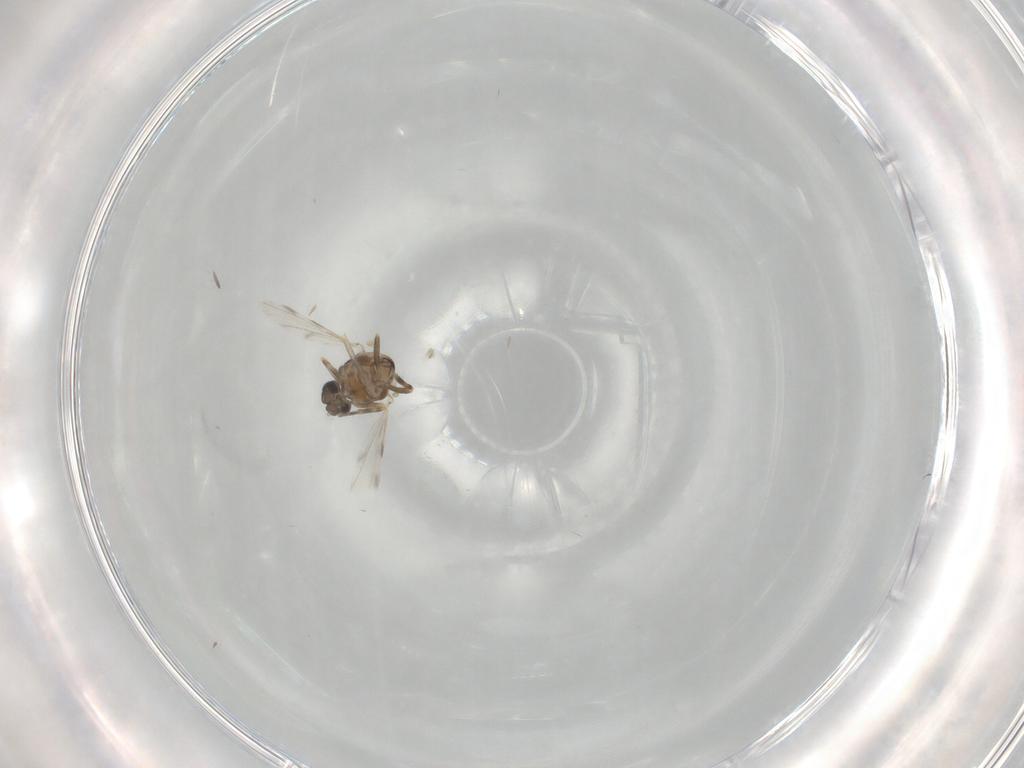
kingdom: Animalia
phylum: Arthropoda
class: Insecta
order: Diptera
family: Ceratopogonidae
